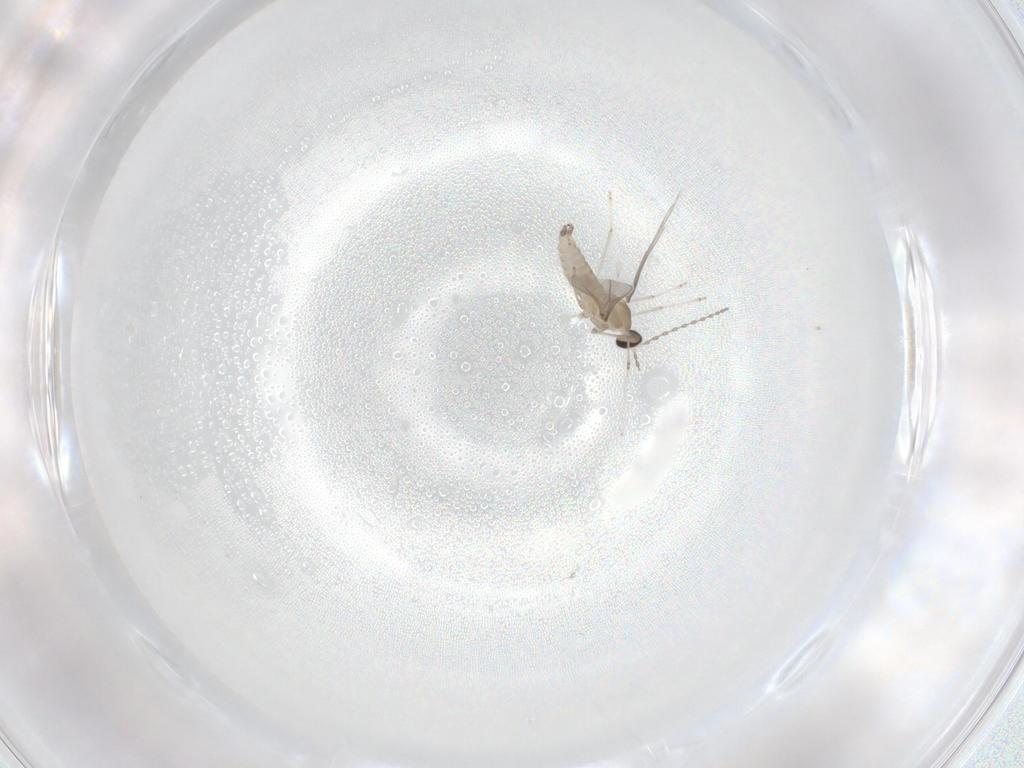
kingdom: Animalia
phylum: Arthropoda
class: Insecta
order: Diptera
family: Cecidomyiidae
